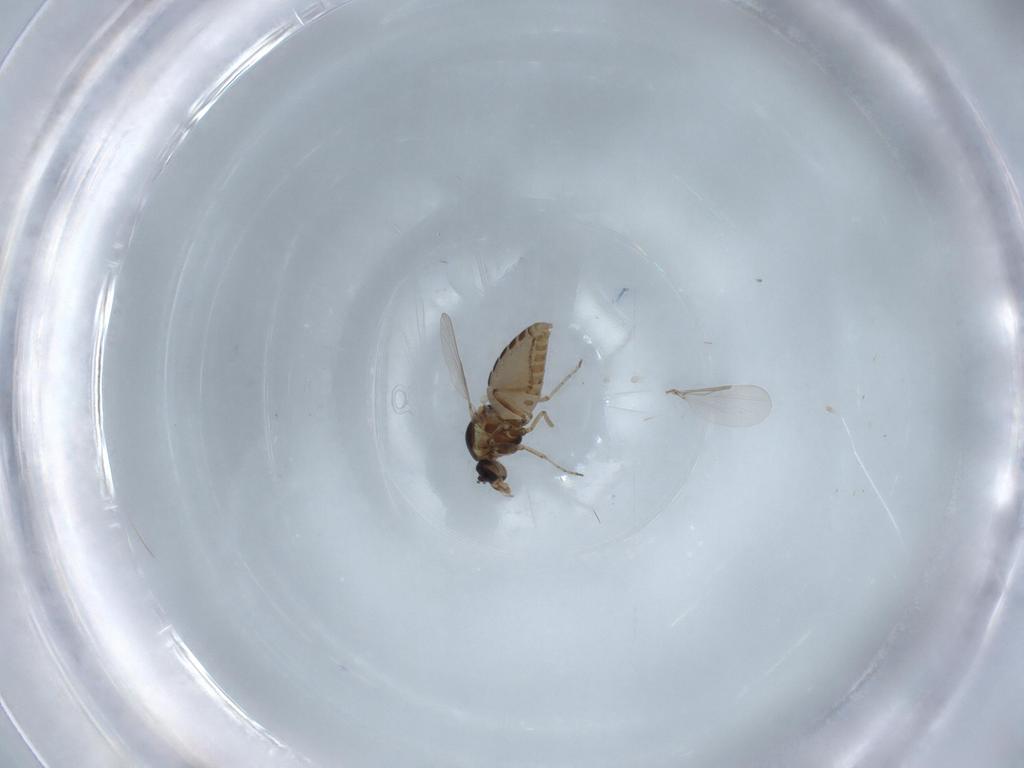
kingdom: Animalia
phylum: Arthropoda
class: Insecta
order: Diptera
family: Ceratopogonidae
